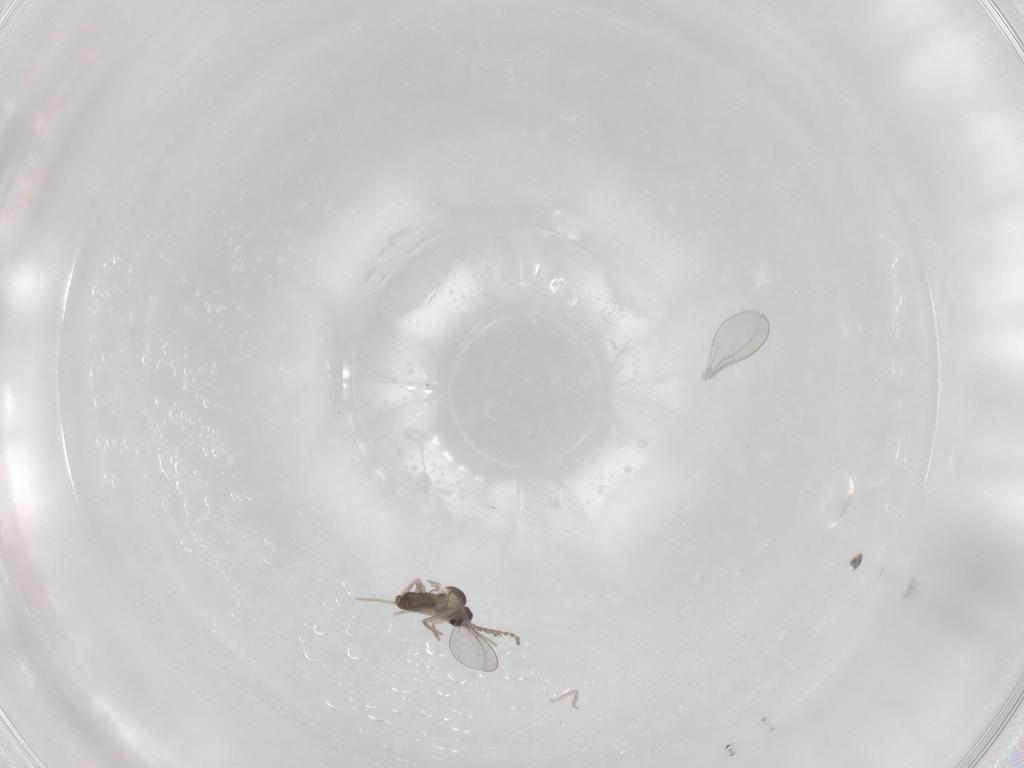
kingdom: Animalia
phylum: Arthropoda
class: Insecta
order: Diptera
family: Cecidomyiidae
